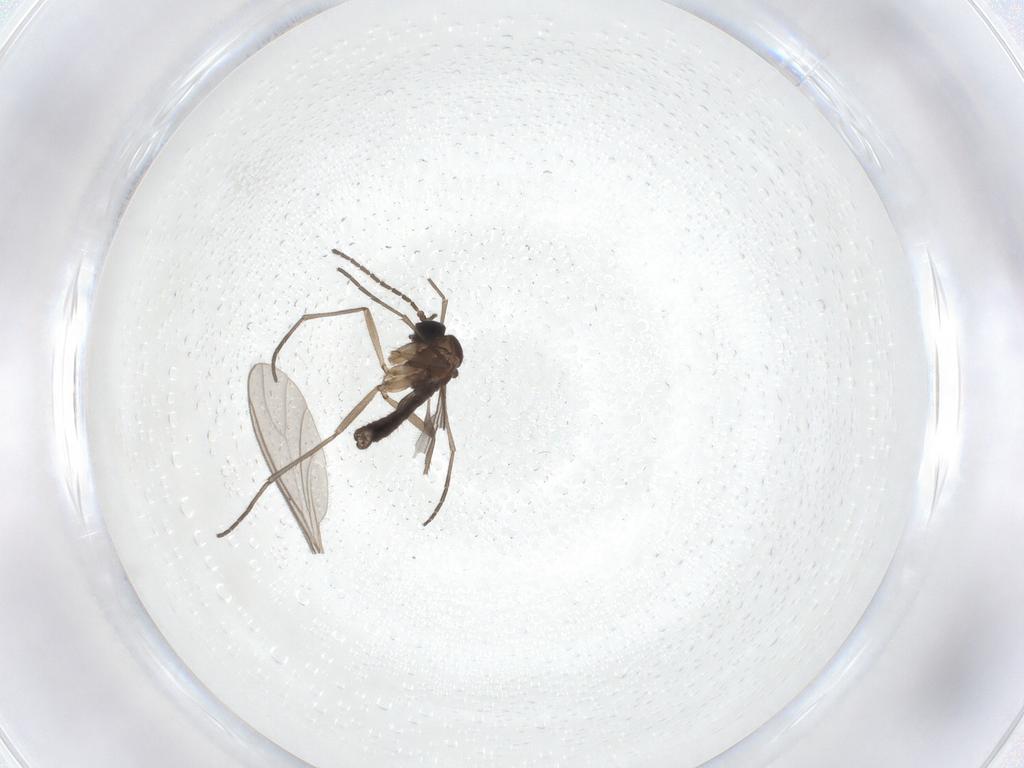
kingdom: Animalia
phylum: Arthropoda
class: Insecta
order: Diptera
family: Sciaridae
